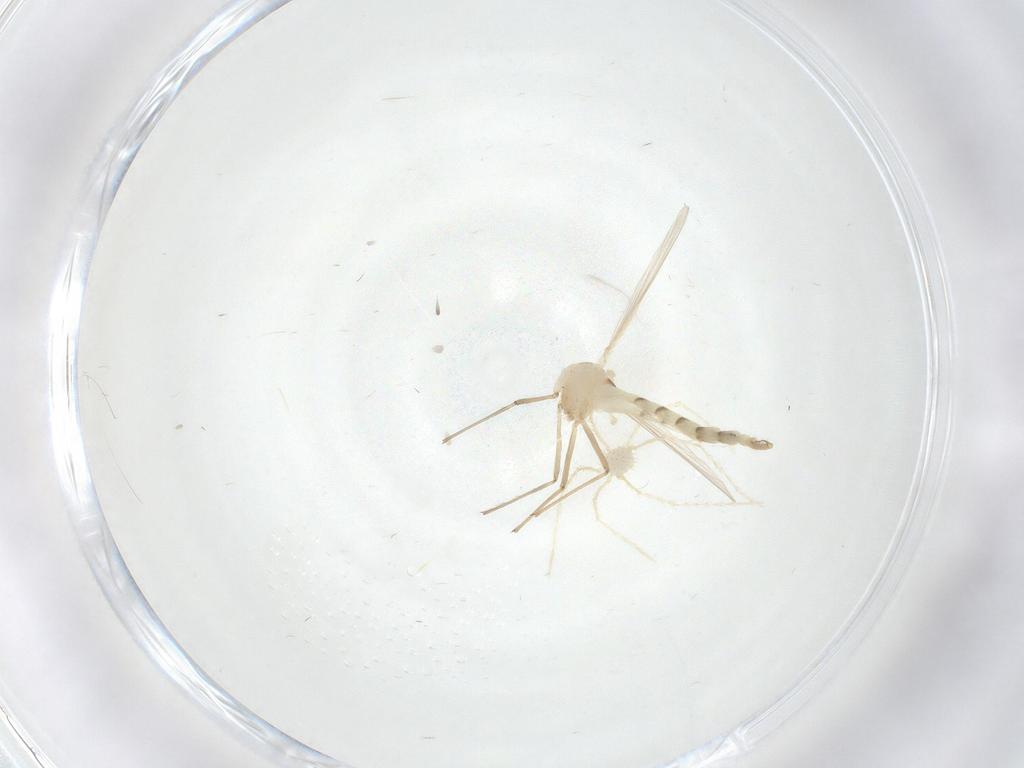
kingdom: Animalia
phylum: Arthropoda
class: Insecta
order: Diptera
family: Chironomidae
